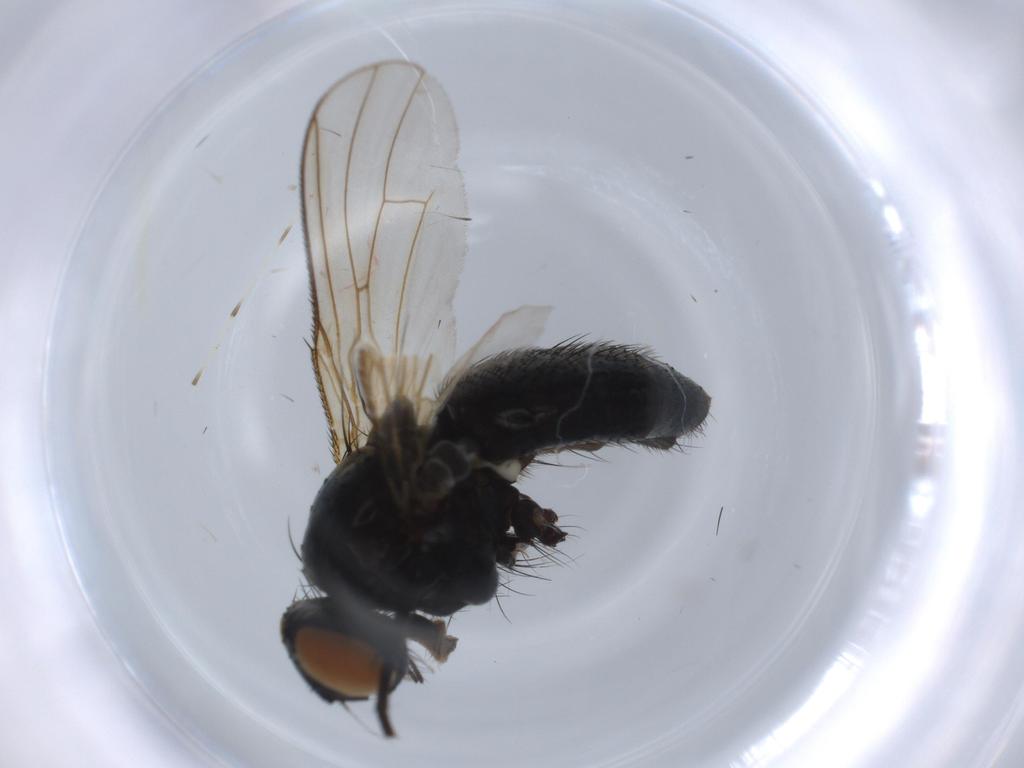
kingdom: Animalia
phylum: Arthropoda
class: Insecta
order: Diptera
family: Muscidae
